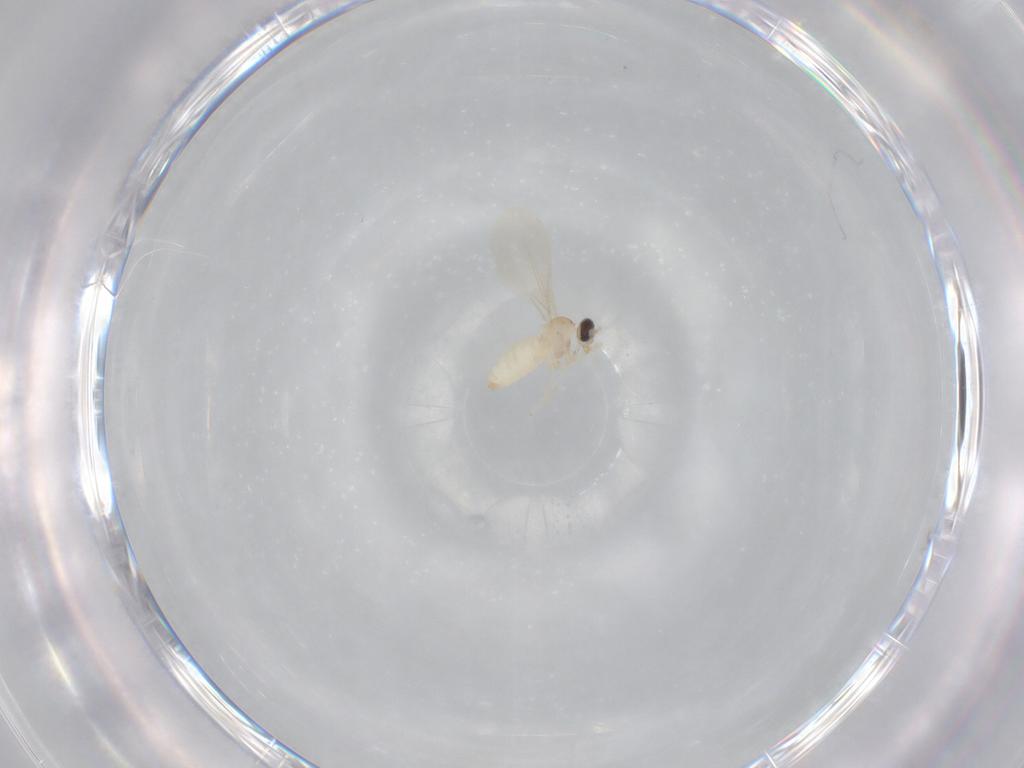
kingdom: Animalia
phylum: Arthropoda
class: Insecta
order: Diptera
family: Cecidomyiidae
